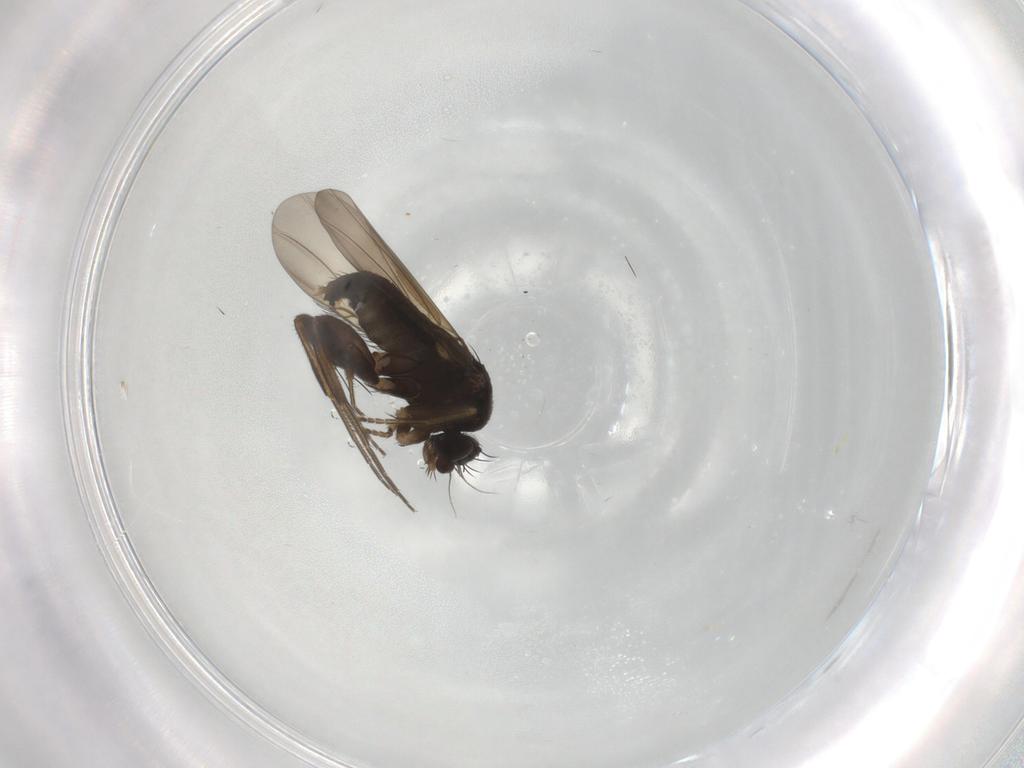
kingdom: Animalia
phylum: Arthropoda
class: Insecta
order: Diptera
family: Phoridae
